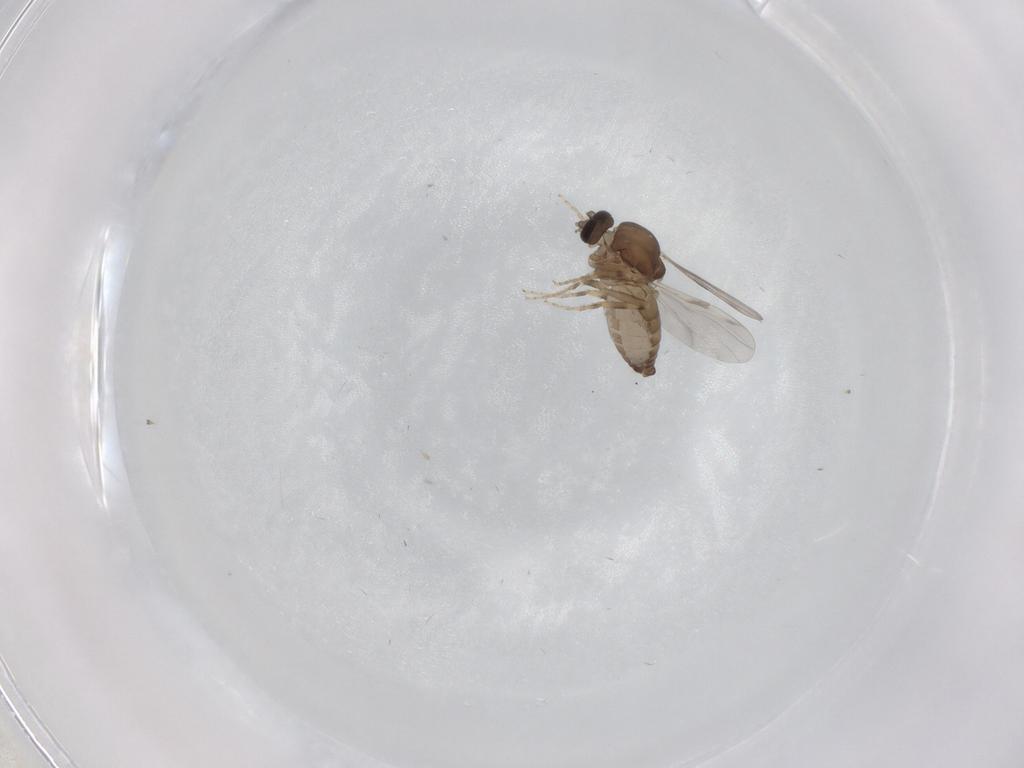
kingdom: Animalia
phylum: Arthropoda
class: Insecta
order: Diptera
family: Ceratopogonidae
